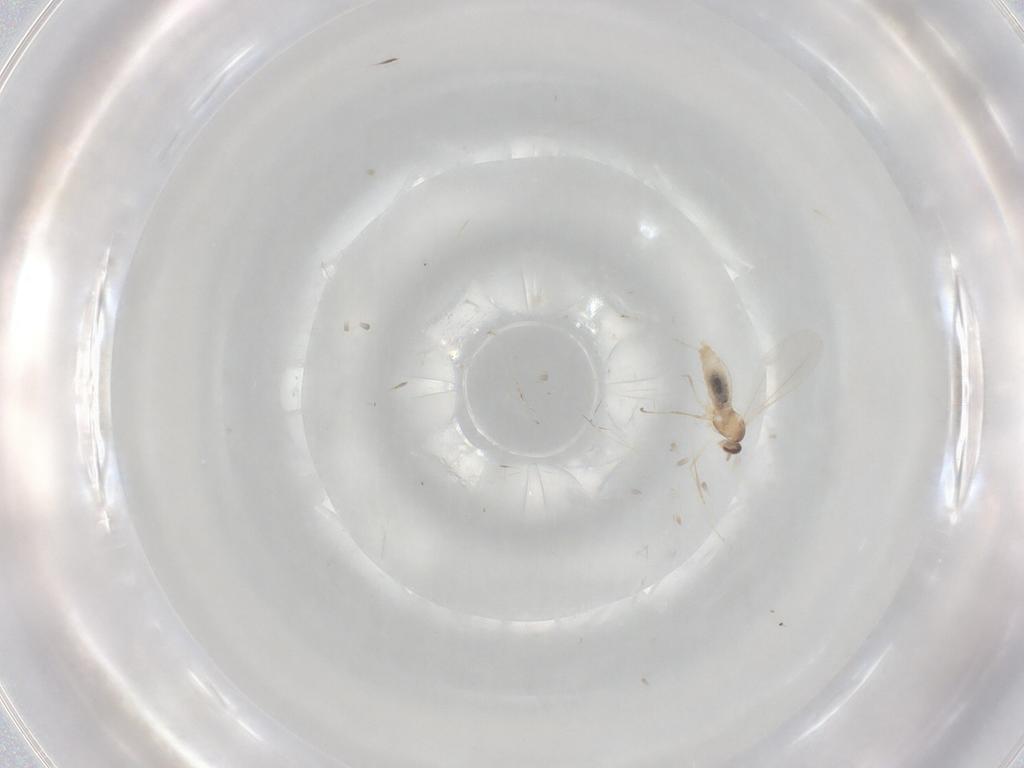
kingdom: Animalia
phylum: Arthropoda
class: Insecta
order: Diptera
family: Cecidomyiidae
